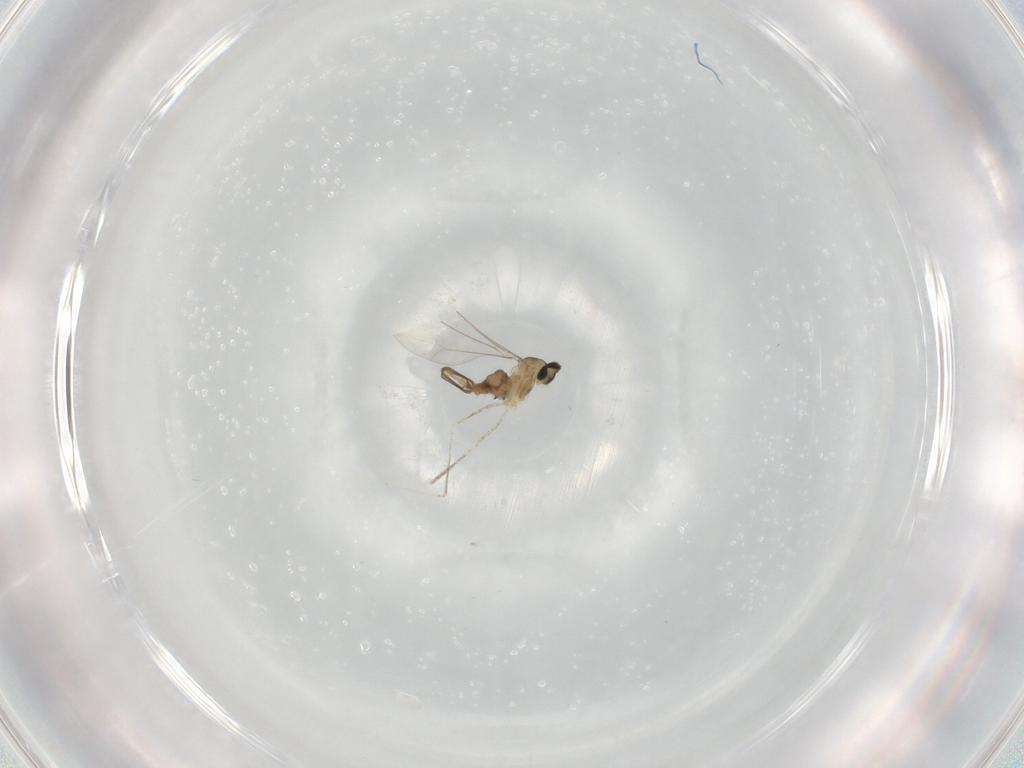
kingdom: Animalia
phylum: Arthropoda
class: Insecta
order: Diptera
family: Cecidomyiidae
